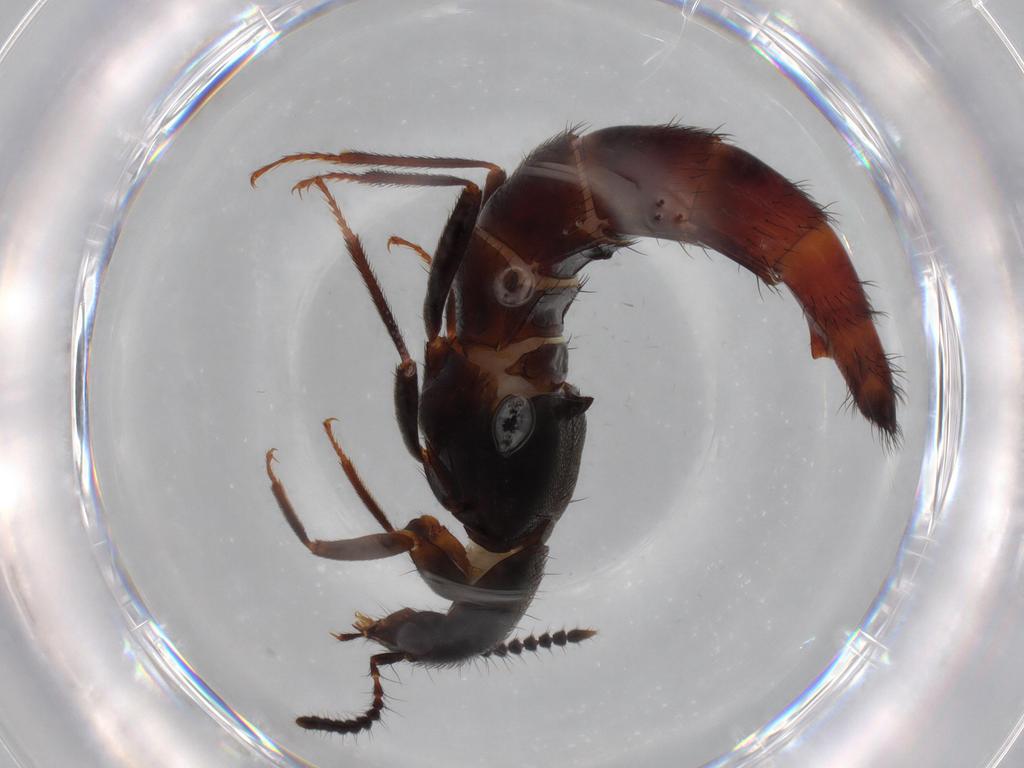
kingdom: Animalia
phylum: Arthropoda
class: Insecta
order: Coleoptera
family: Staphylinidae
